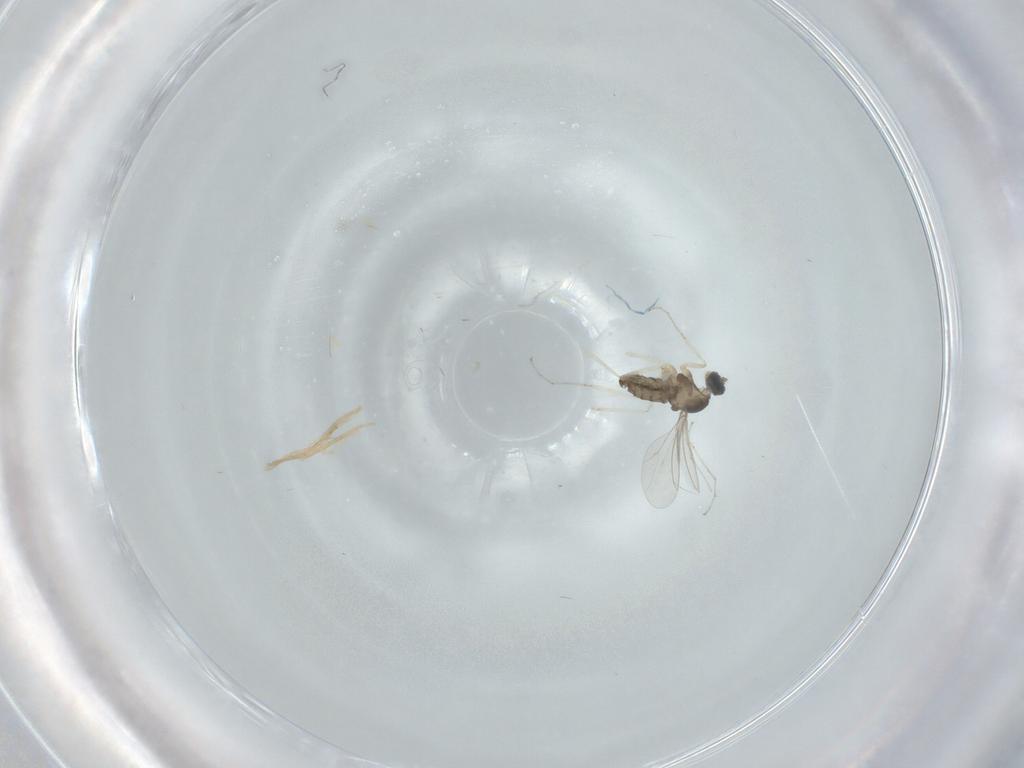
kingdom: Animalia
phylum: Arthropoda
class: Insecta
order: Diptera
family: Cecidomyiidae
